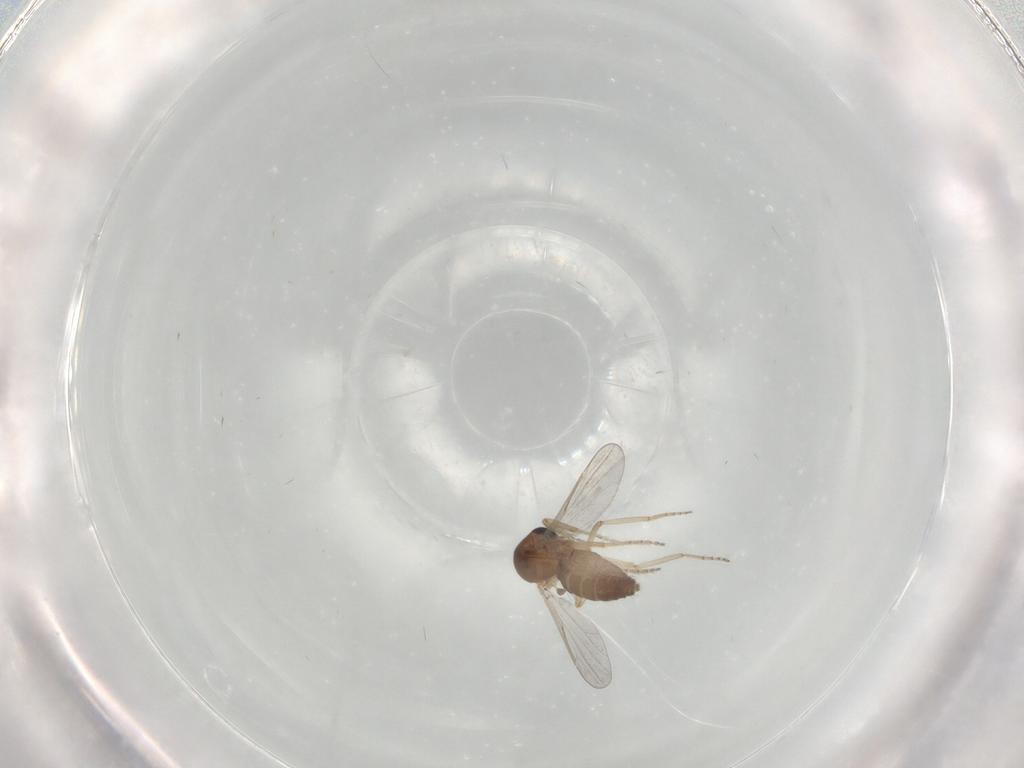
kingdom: Animalia
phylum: Arthropoda
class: Insecta
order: Diptera
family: Ceratopogonidae
